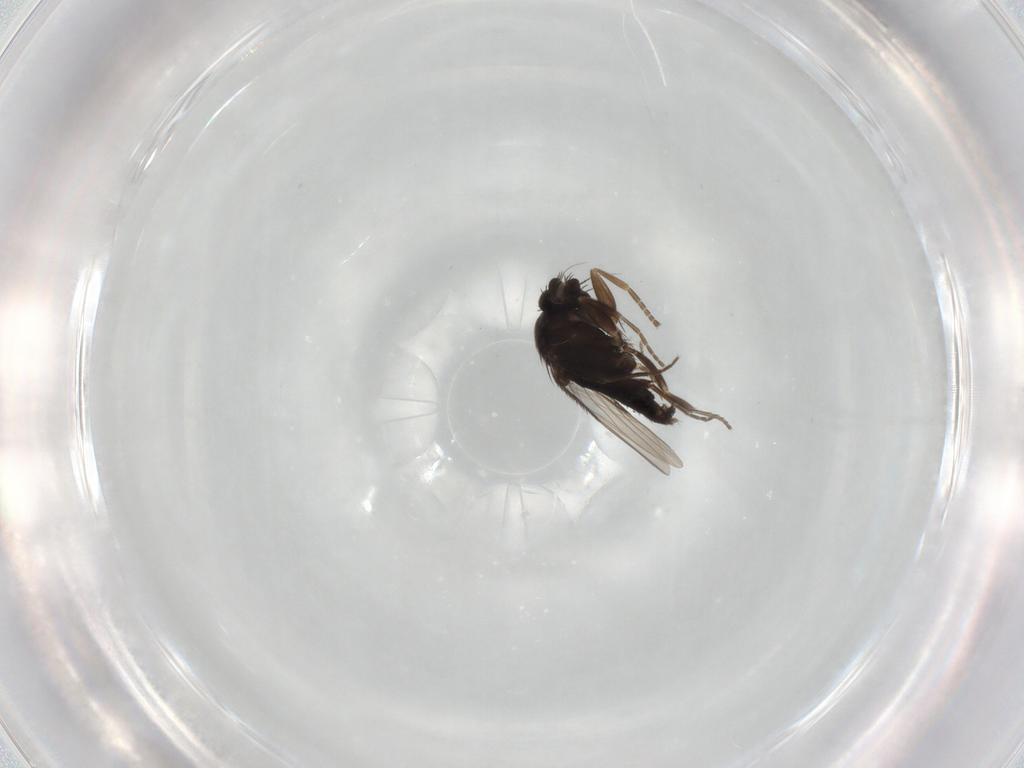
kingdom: Animalia
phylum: Arthropoda
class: Insecta
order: Diptera
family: Phoridae
